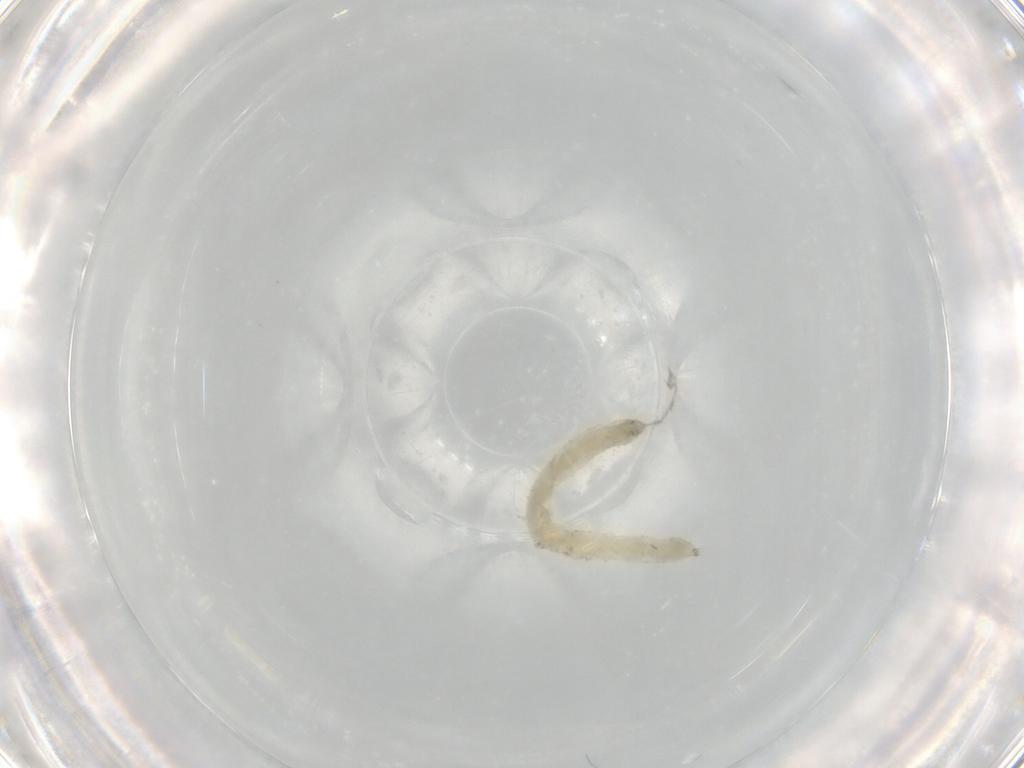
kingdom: Animalia
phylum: Arthropoda
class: Insecta
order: Diptera
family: Chironomidae
